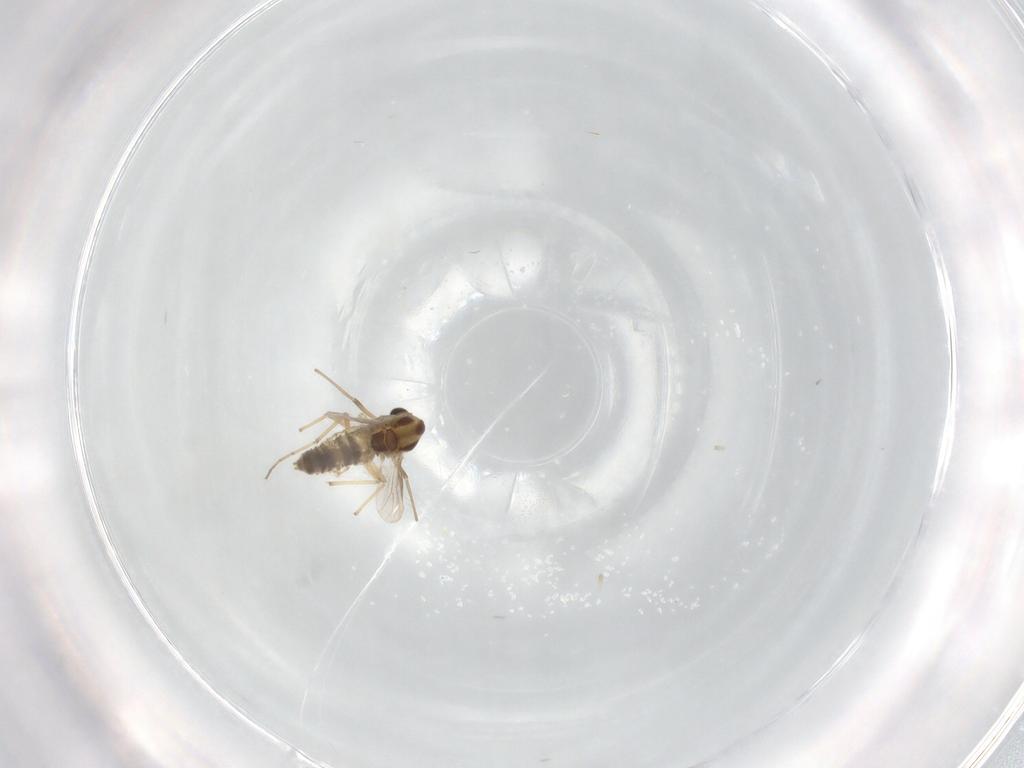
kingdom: Animalia
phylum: Arthropoda
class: Insecta
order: Diptera
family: Chironomidae
